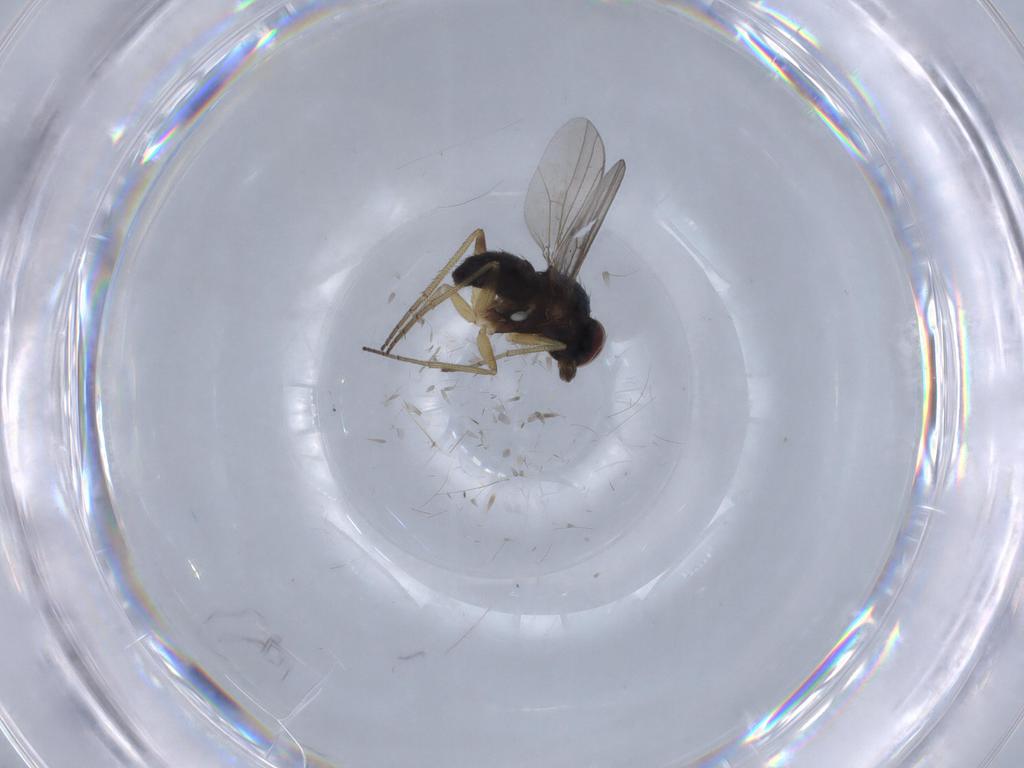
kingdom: Animalia
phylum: Arthropoda
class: Insecta
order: Diptera
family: Dolichopodidae
